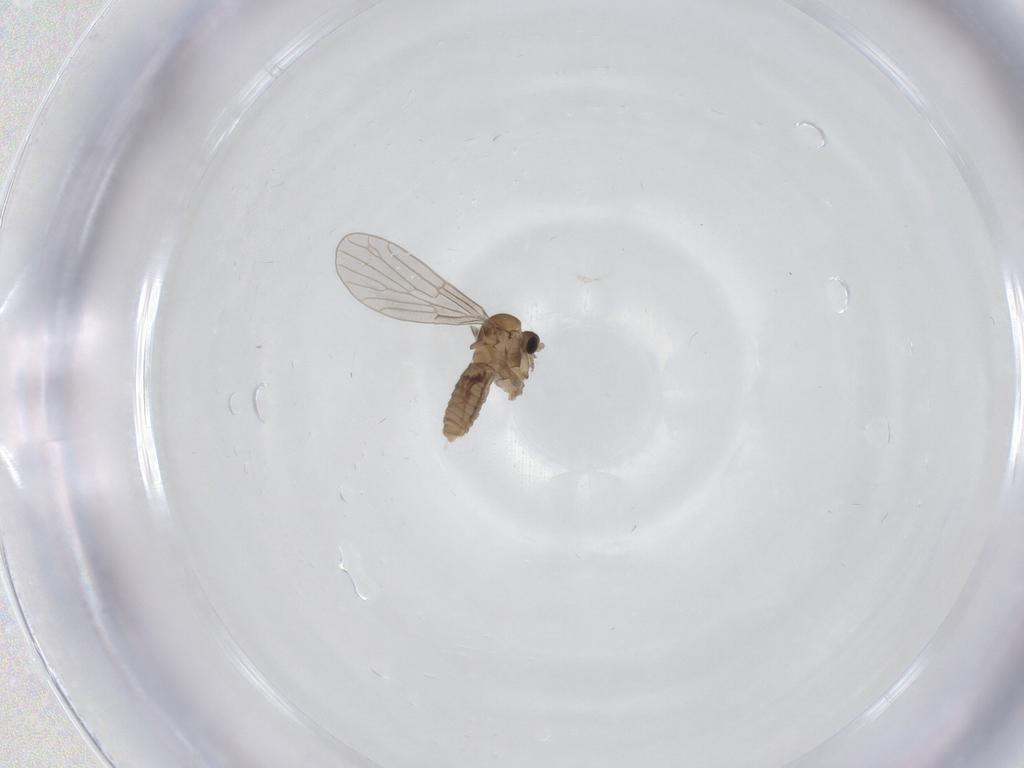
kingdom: Animalia
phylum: Arthropoda
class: Insecta
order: Diptera
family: Psychodidae
